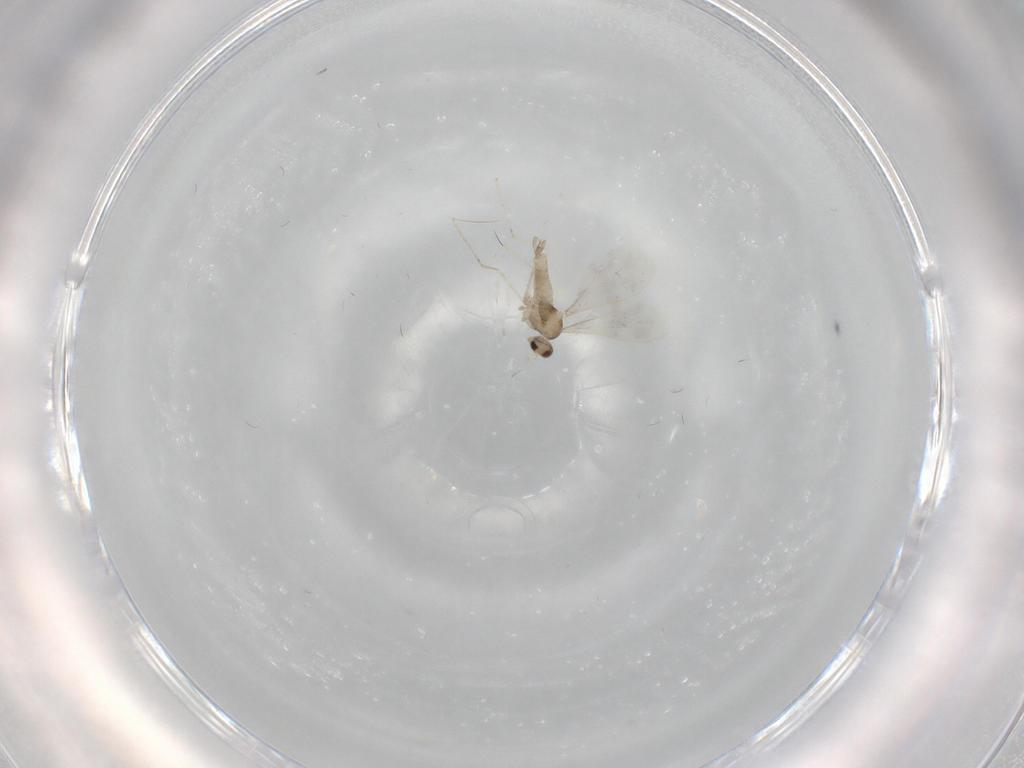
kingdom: Animalia
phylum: Arthropoda
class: Insecta
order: Diptera
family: Cecidomyiidae
